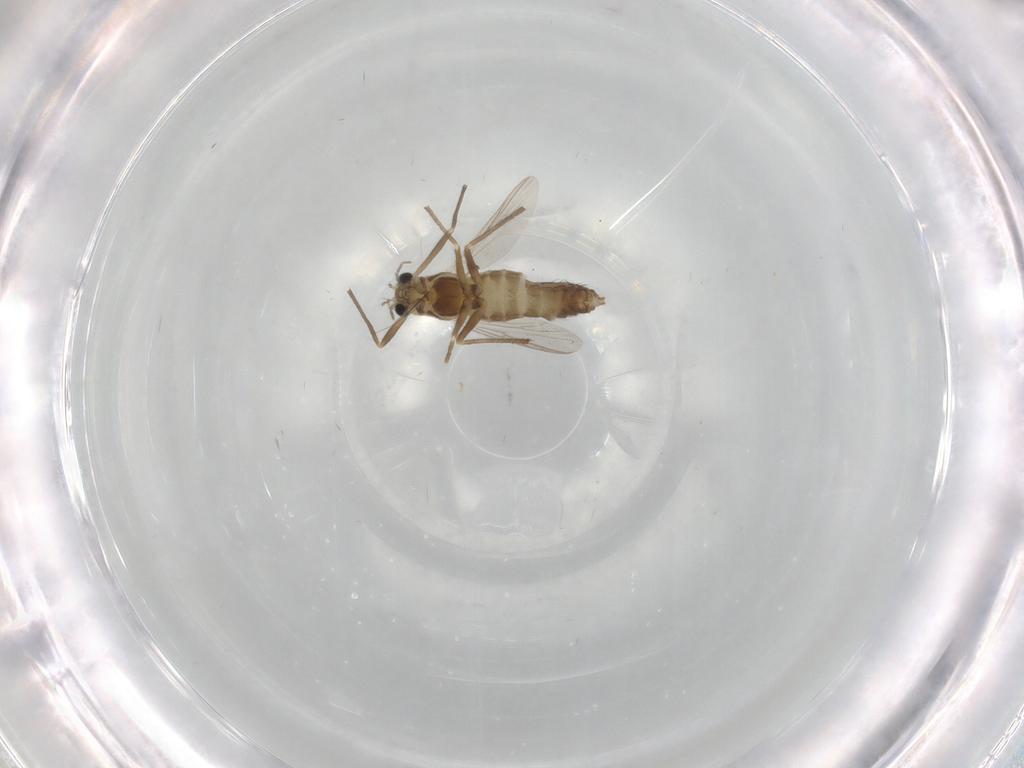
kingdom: Animalia
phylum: Arthropoda
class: Insecta
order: Diptera
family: Chironomidae
